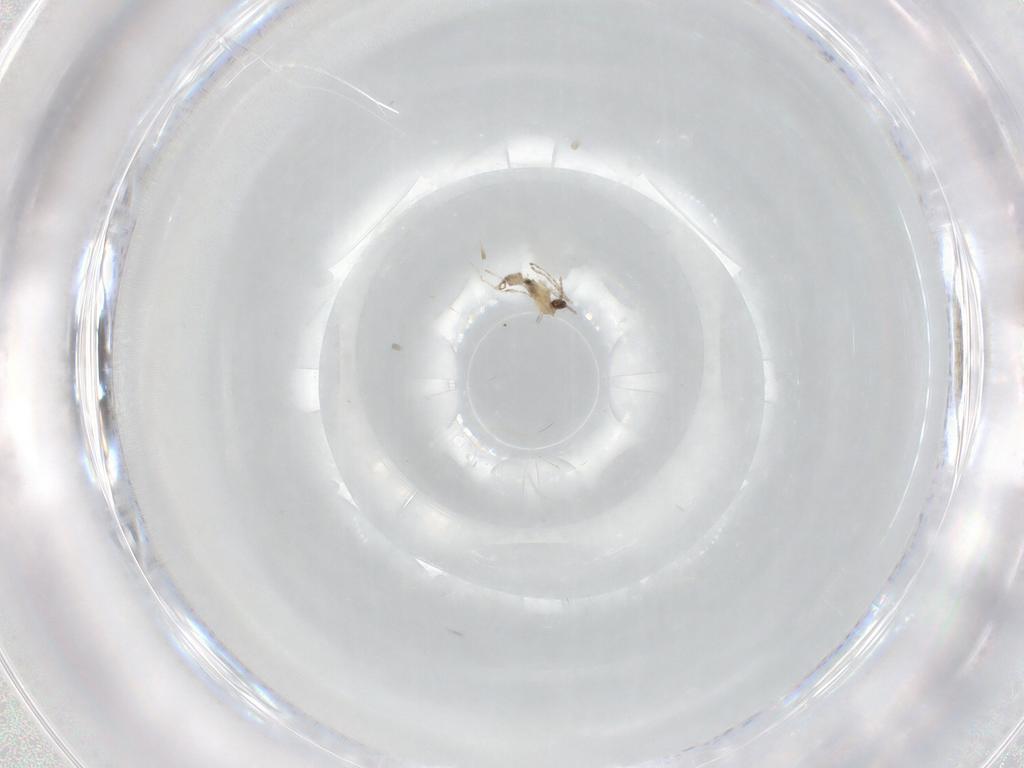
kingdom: Animalia
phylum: Arthropoda
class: Insecta
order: Diptera
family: Cecidomyiidae
